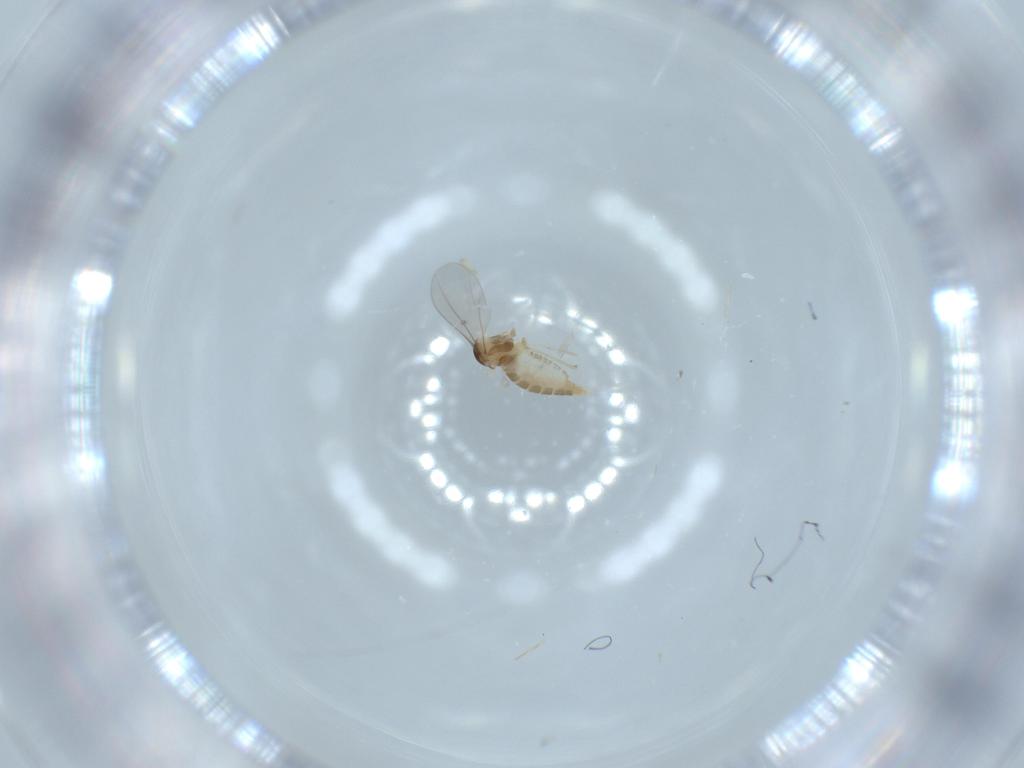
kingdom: Animalia
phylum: Arthropoda
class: Insecta
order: Diptera
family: Cecidomyiidae
